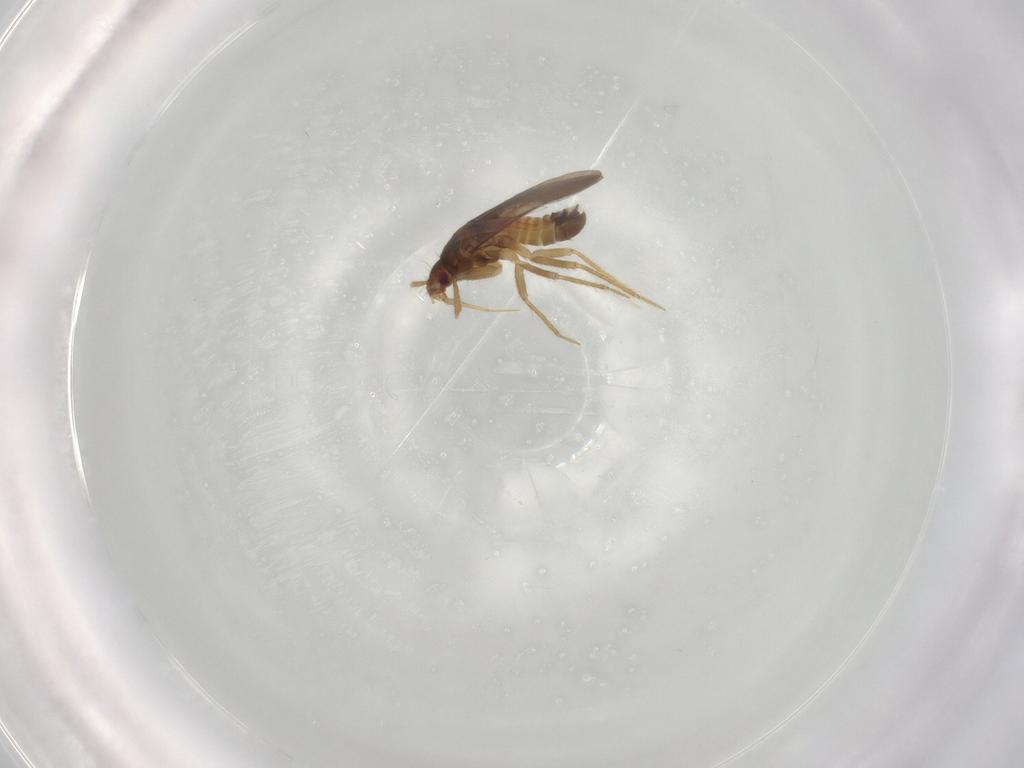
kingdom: Animalia
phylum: Arthropoda
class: Insecta
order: Hemiptera
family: Ceratocombidae
